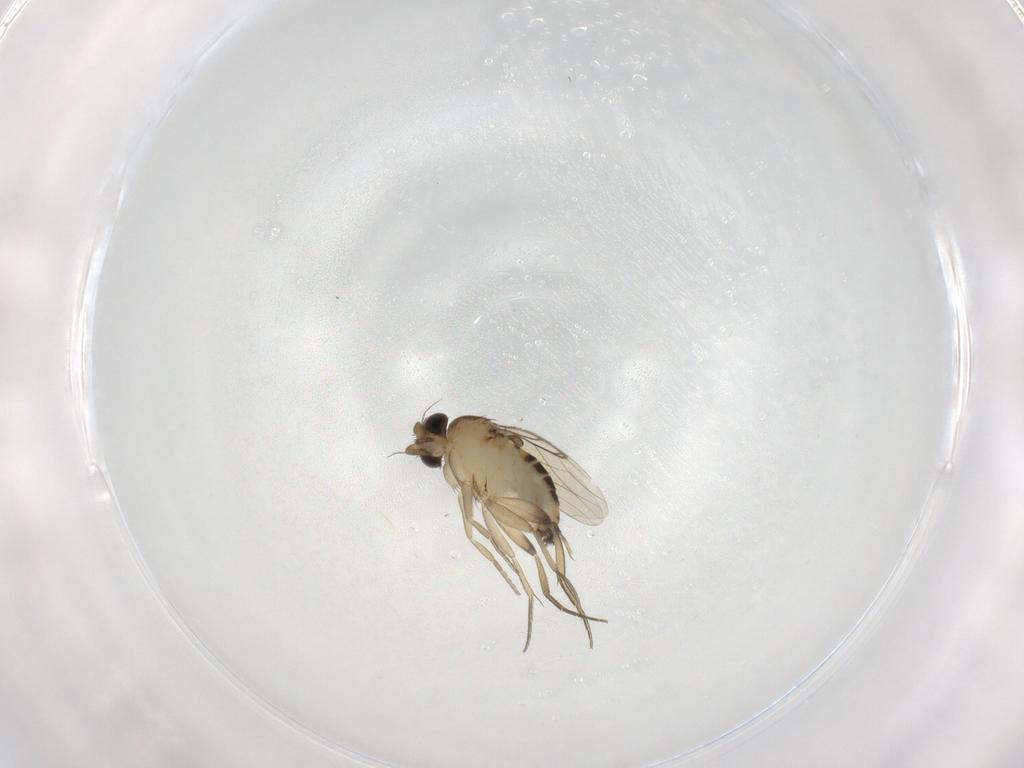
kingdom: Animalia
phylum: Arthropoda
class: Insecta
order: Diptera
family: Phoridae
